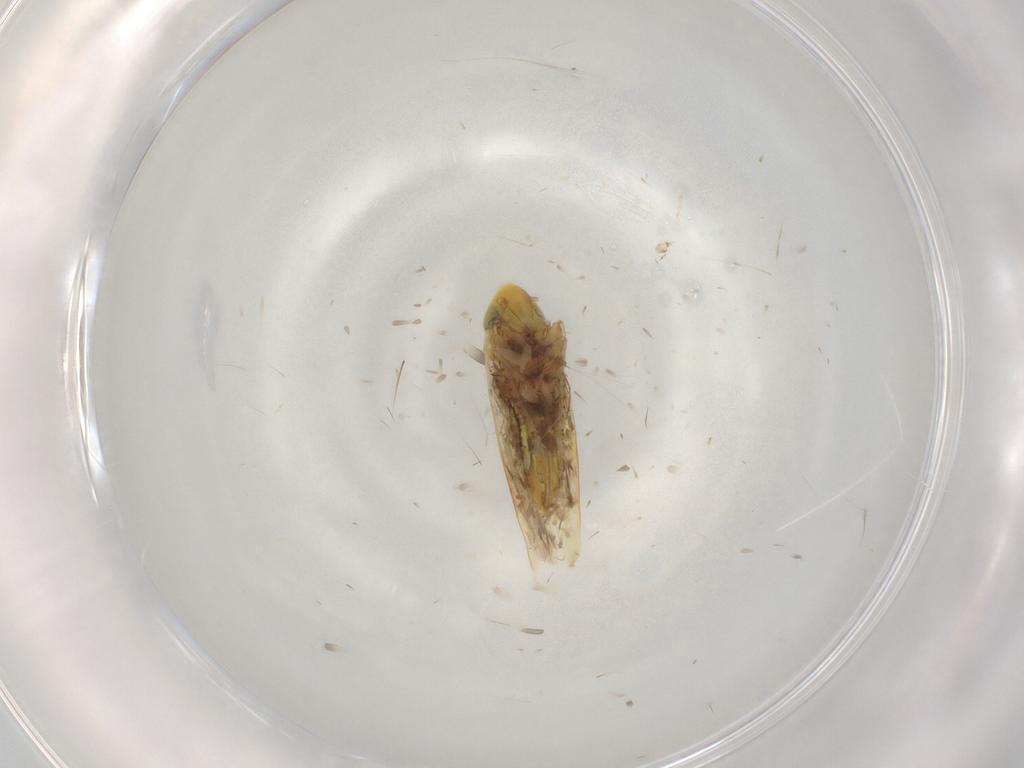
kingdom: Animalia
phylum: Arthropoda
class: Insecta
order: Hemiptera
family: Cicadellidae
